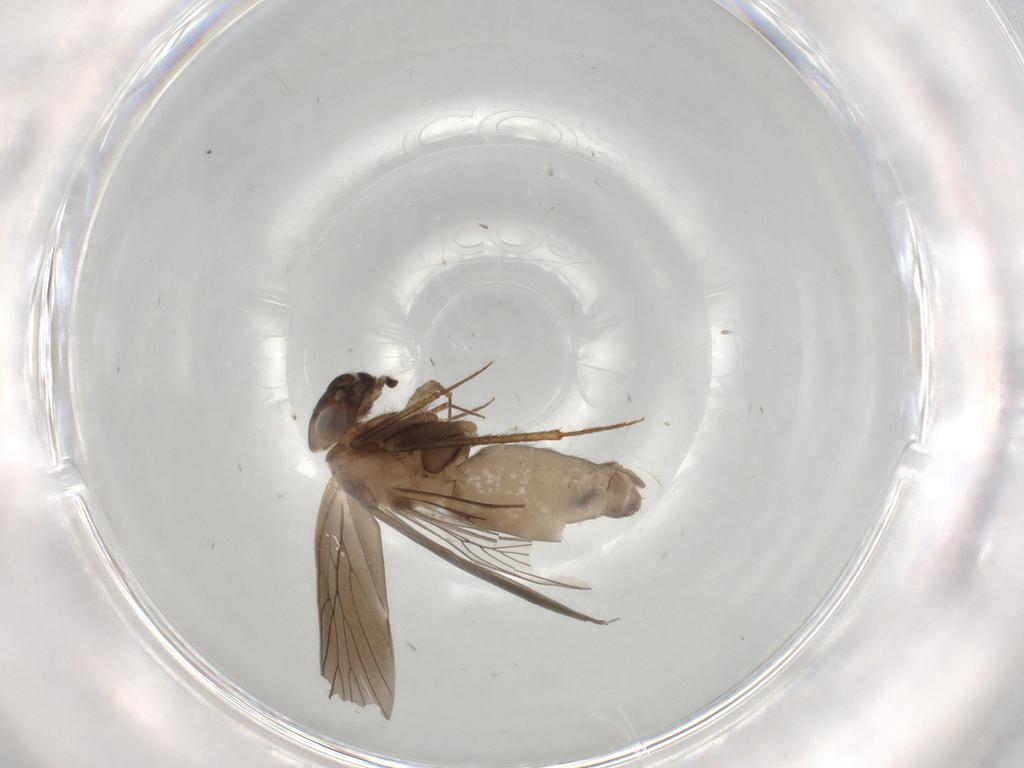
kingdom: Animalia
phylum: Arthropoda
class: Insecta
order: Psocodea
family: Lepidopsocidae
